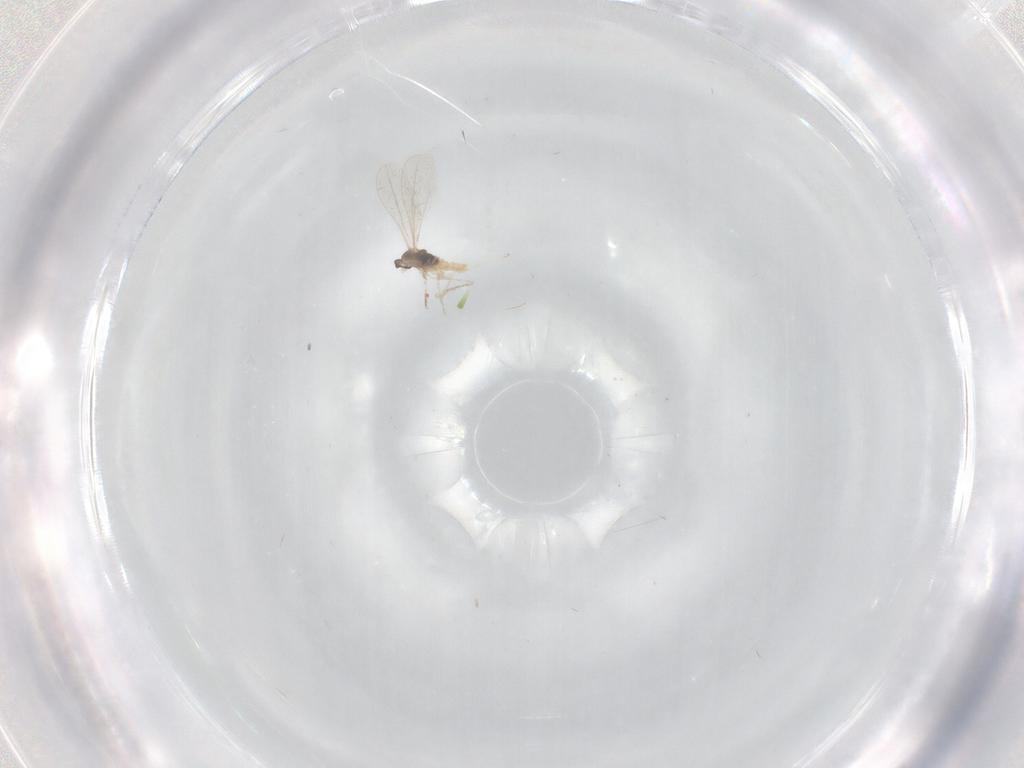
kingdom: Animalia
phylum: Arthropoda
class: Insecta
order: Diptera
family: Cecidomyiidae
